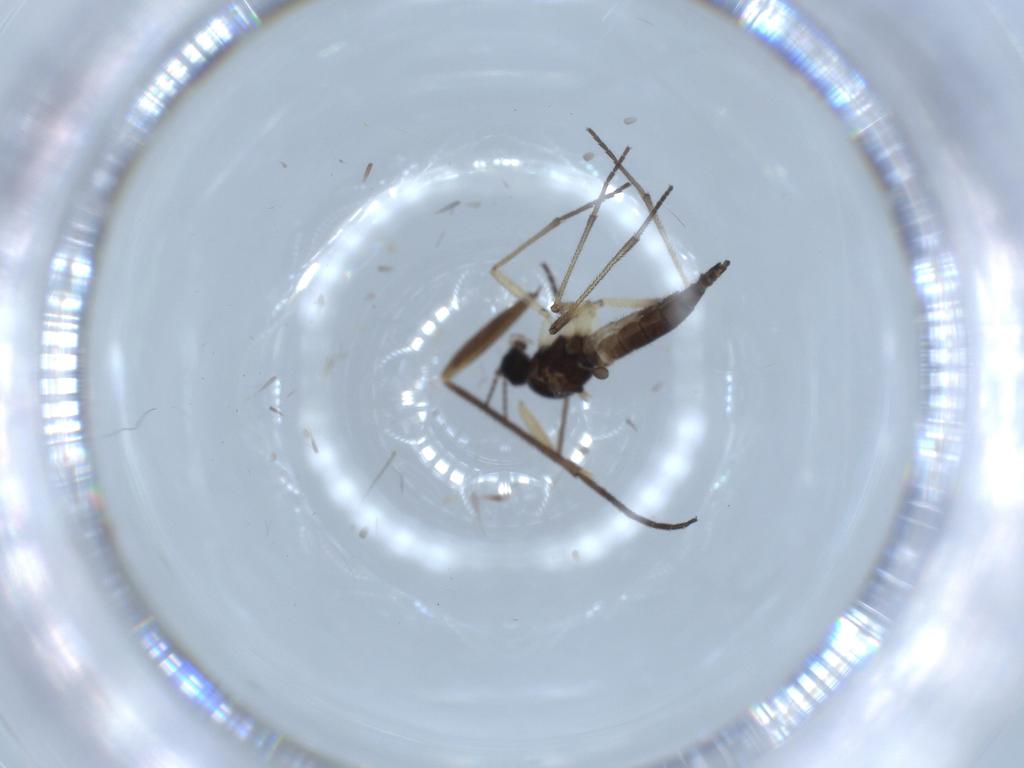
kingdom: Animalia
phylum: Arthropoda
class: Insecta
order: Diptera
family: Sciaridae
